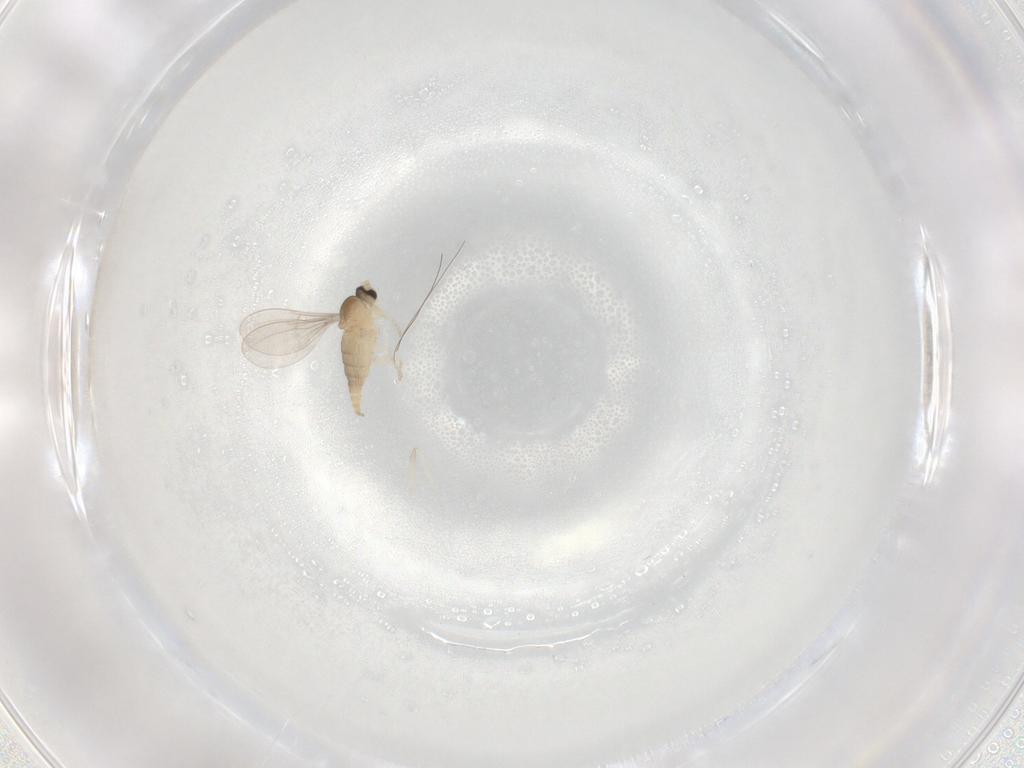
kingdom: Animalia
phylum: Arthropoda
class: Insecta
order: Diptera
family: Cecidomyiidae
